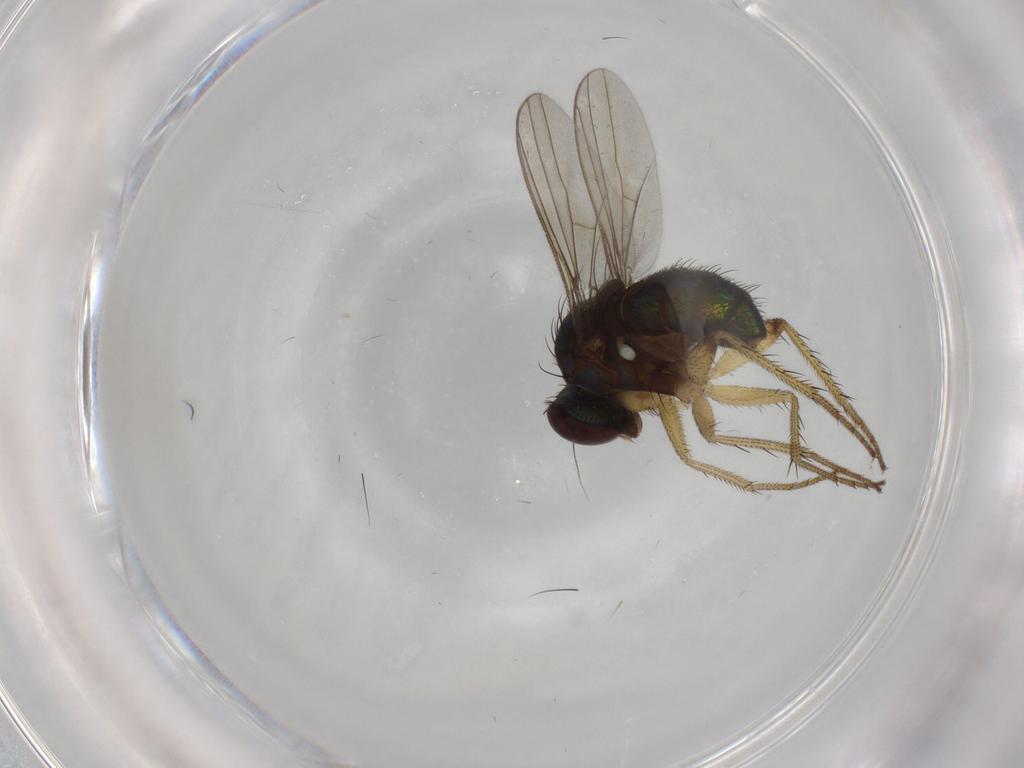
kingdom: Animalia
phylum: Arthropoda
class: Insecta
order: Diptera
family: Dolichopodidae
